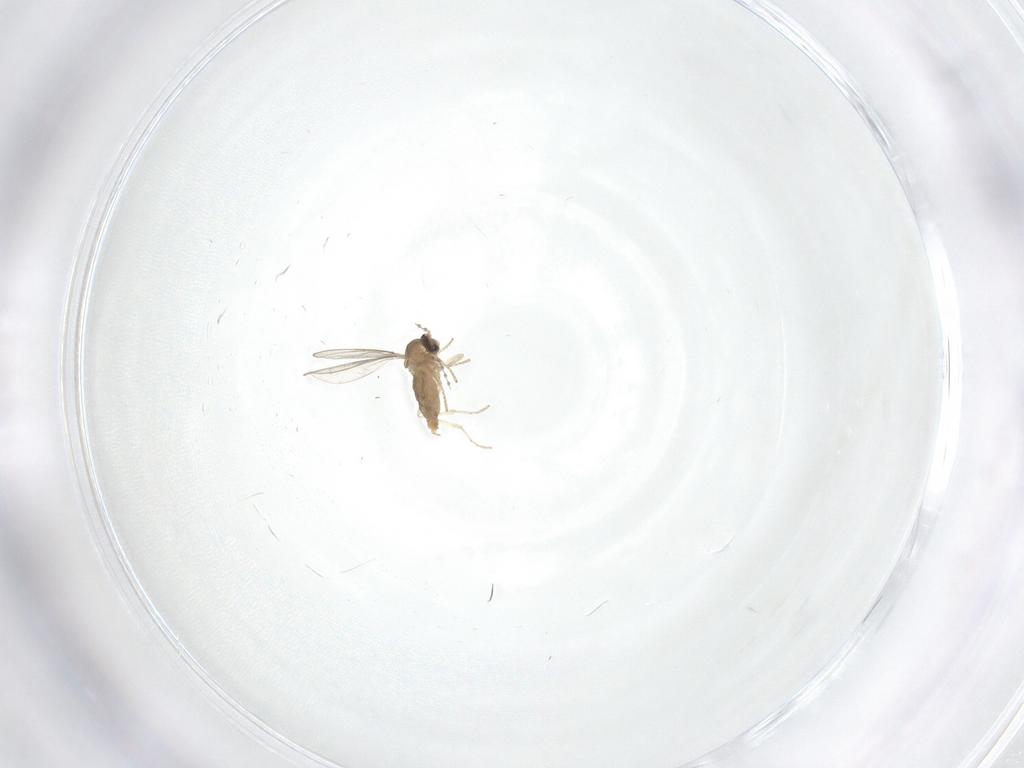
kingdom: Animalia
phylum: Arthropoda
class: Insecta
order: Diptera
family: Cecidomyiidae
